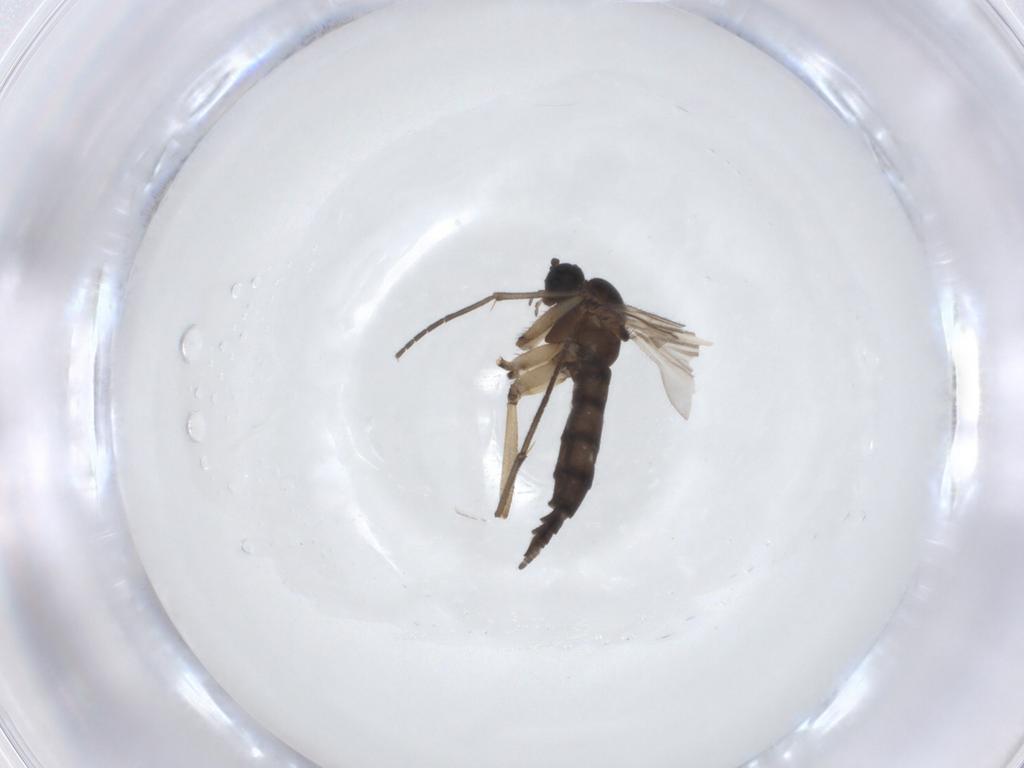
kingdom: Animalia
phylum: Arthropoda
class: Insecta
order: Diptera
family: Sciaridae
